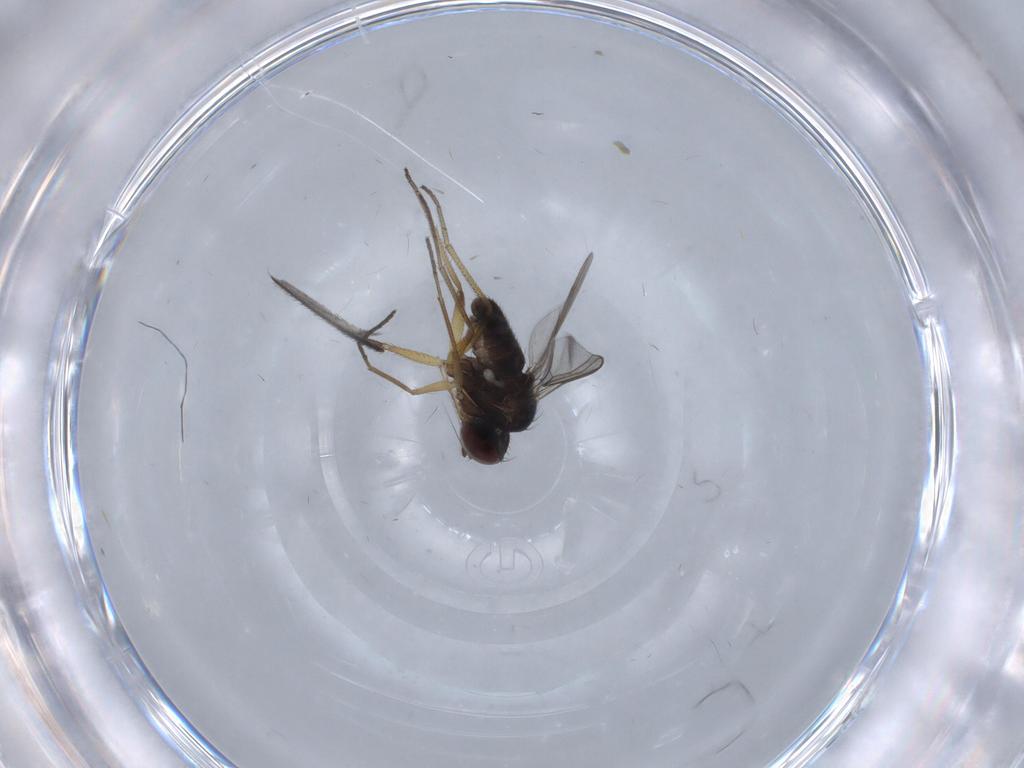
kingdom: Animalia
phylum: Arthropoda
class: Insecta
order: Diptera
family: Dolichopodidae
